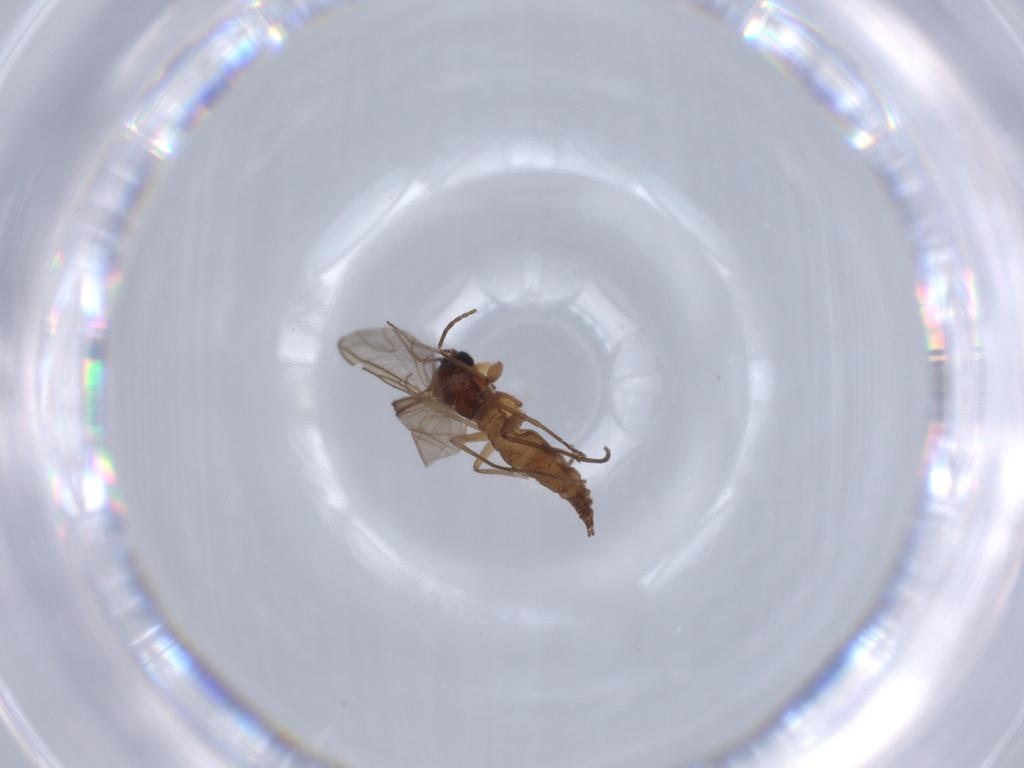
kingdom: Animalia
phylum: Arthropoda
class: Insecta
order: Diptera
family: Sciaridae
